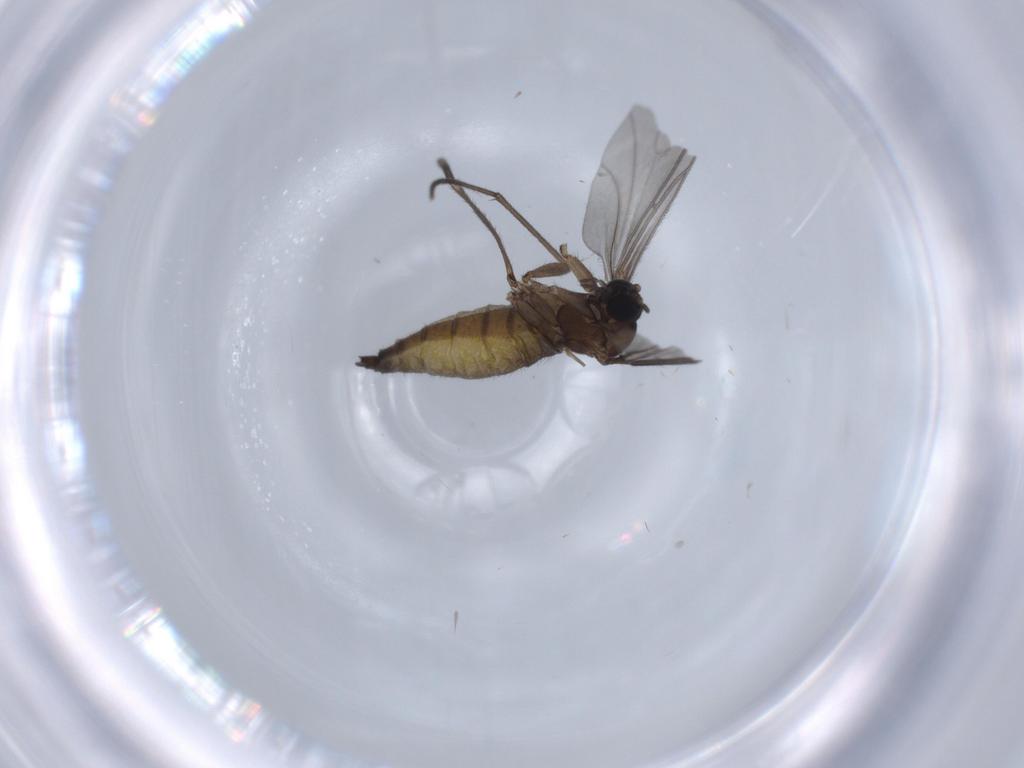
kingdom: Animalia
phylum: Arthropoda
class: Insecta
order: Diptera
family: Sciaridae
